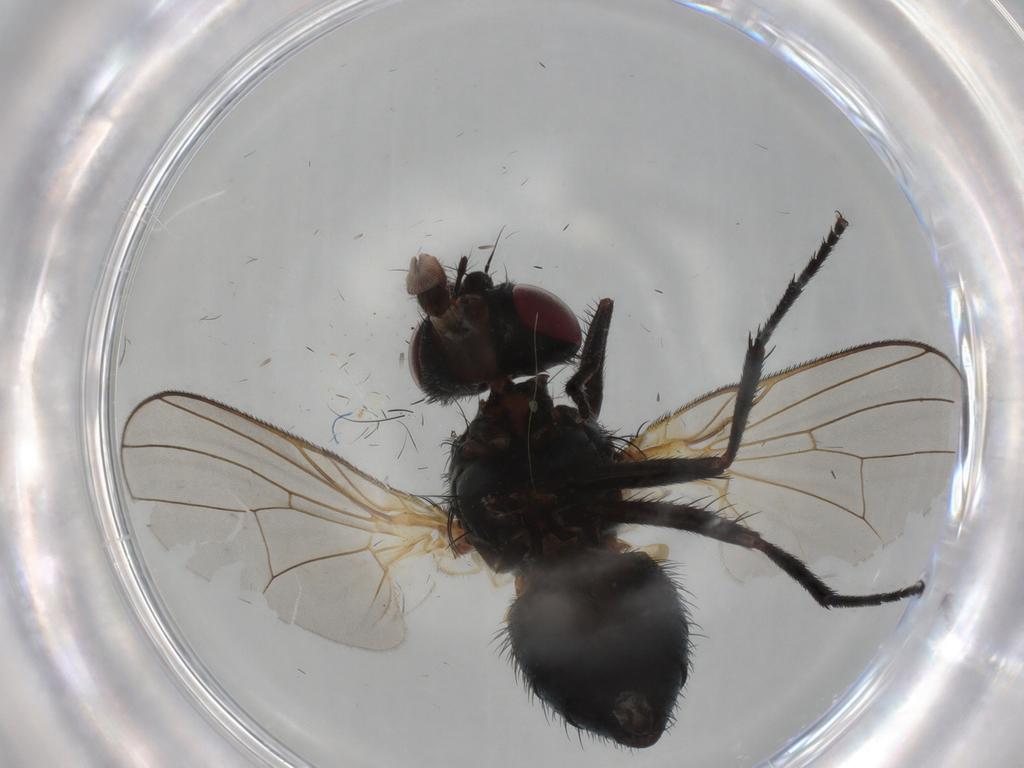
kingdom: Animalia
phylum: Arthropoda
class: Insecta
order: Diptera
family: Fannia
